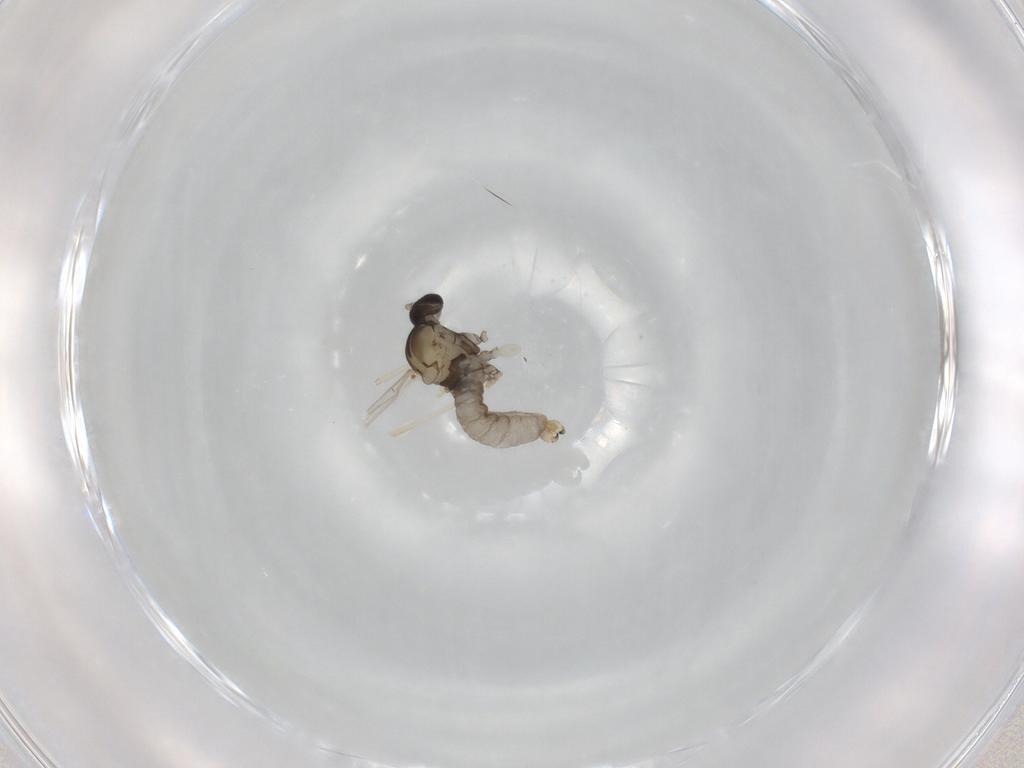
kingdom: Animalia
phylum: Arthropoda
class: Insecta
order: Diptera
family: Cecidomyiidae
